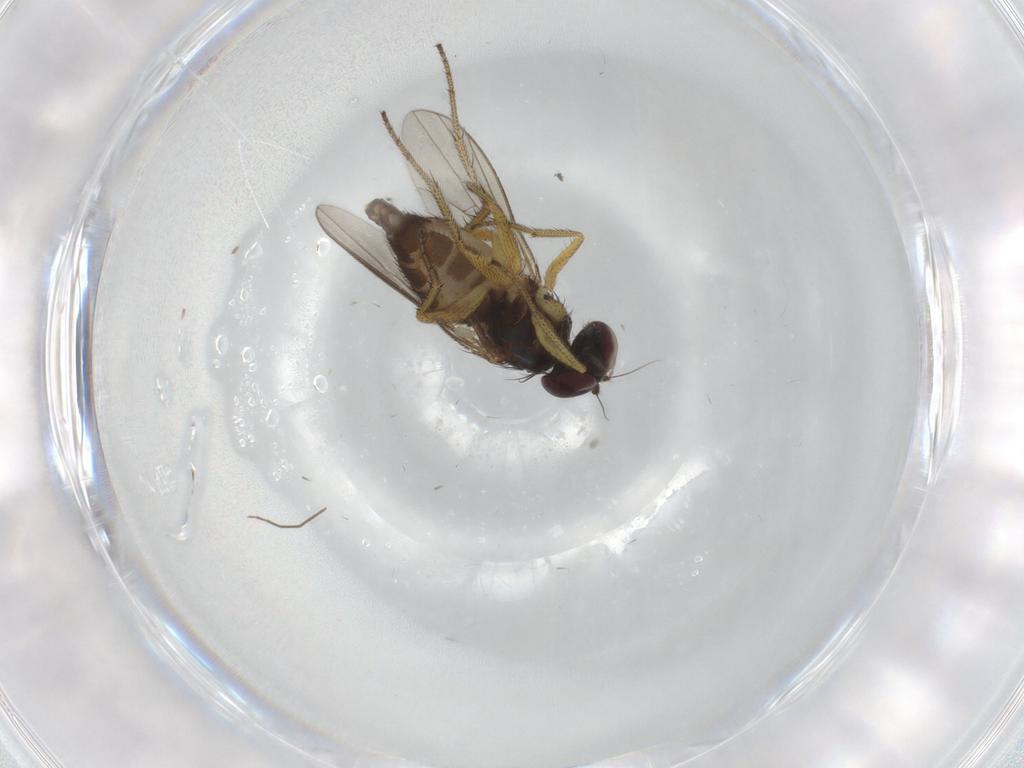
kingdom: Animalia
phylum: Arthropoda
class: Insecta
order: Diptera
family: Chironomidae
